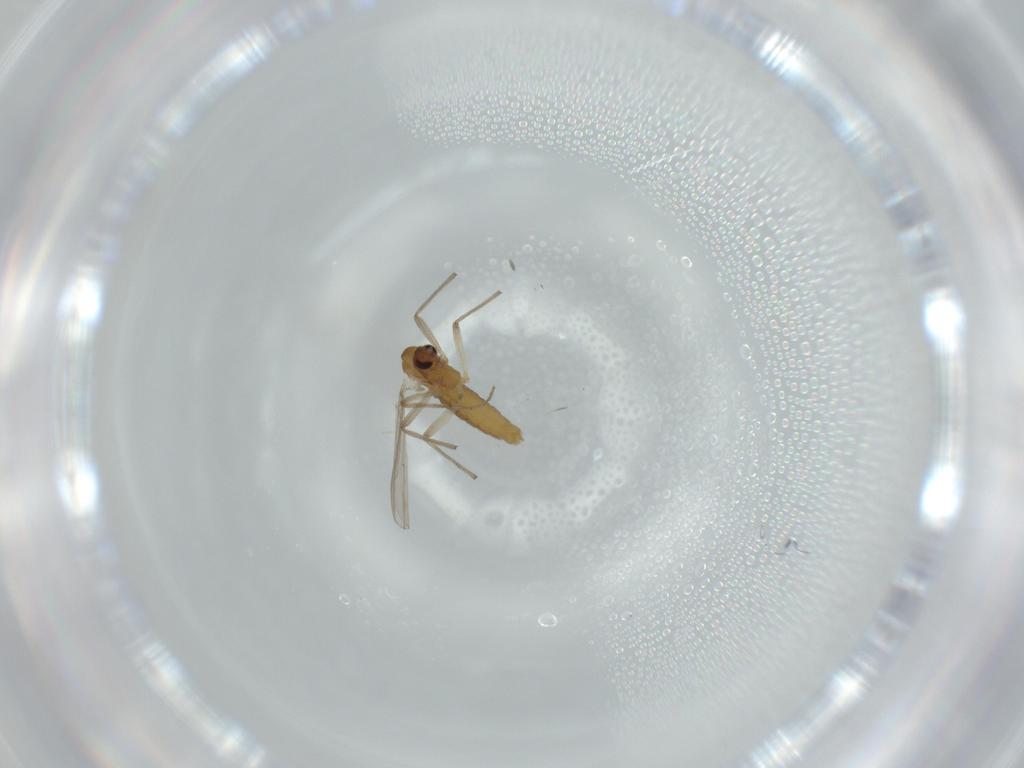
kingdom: Animalia
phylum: Arthropoda
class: Insecta
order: Diptera
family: Chironomidae
